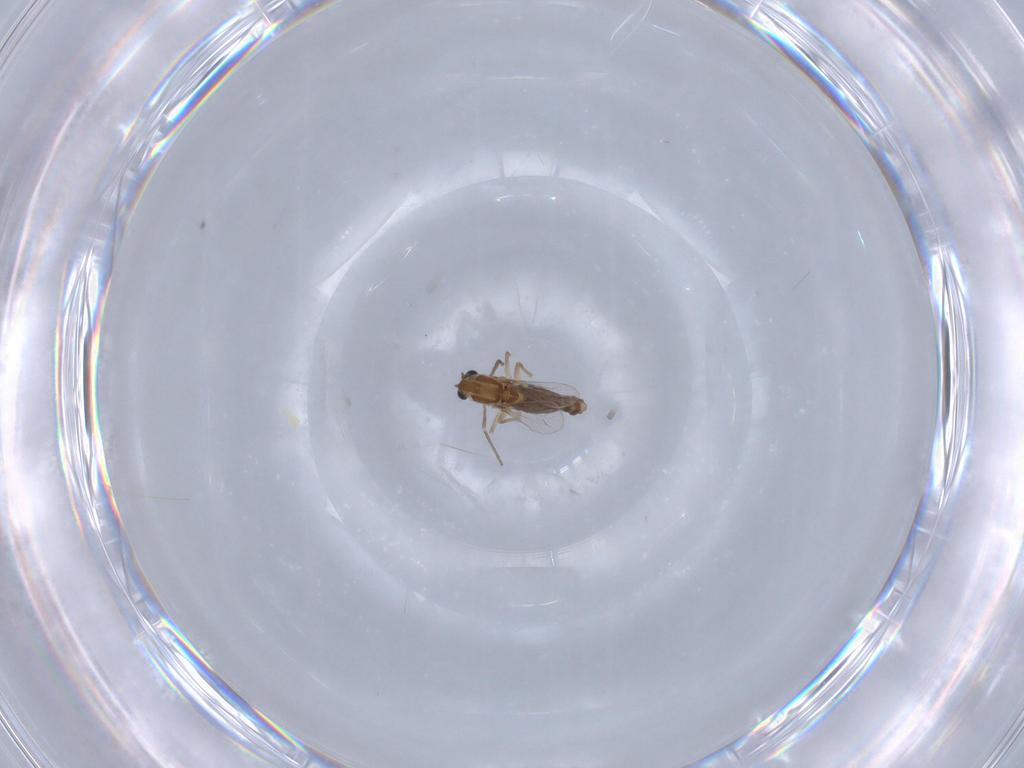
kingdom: Animalia
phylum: Arthropoda
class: Insecta
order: Diptera
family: Chironomidae
